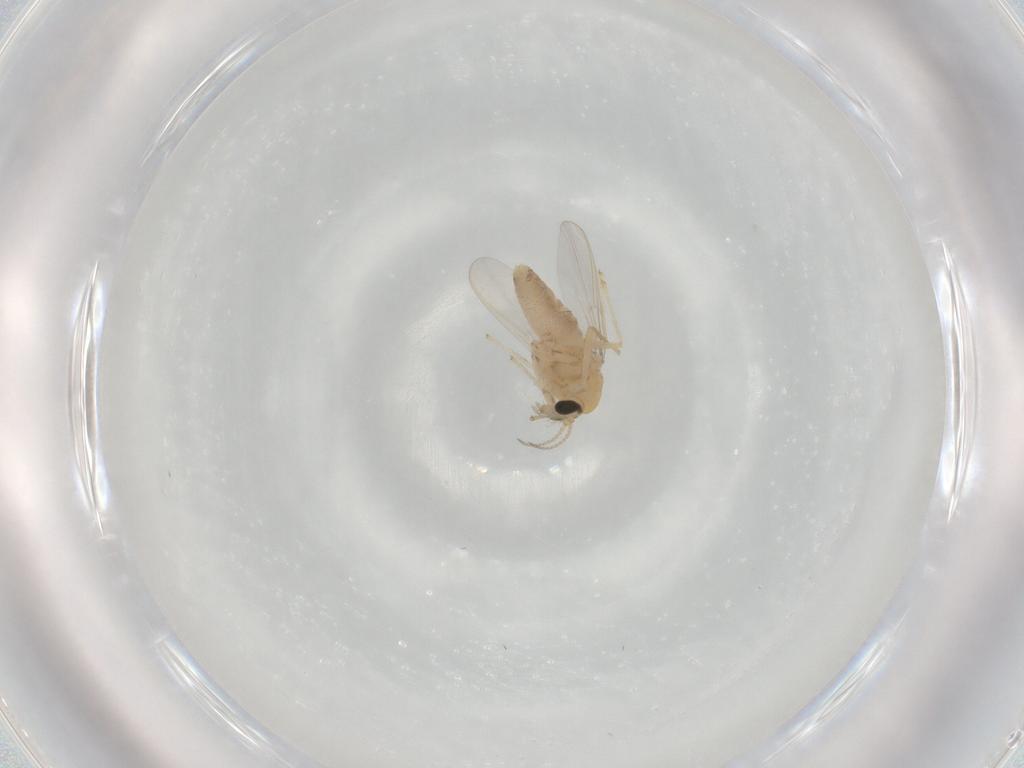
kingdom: Animalia
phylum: Arthropoda
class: Insecta
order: Diptera
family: Chironomidae
